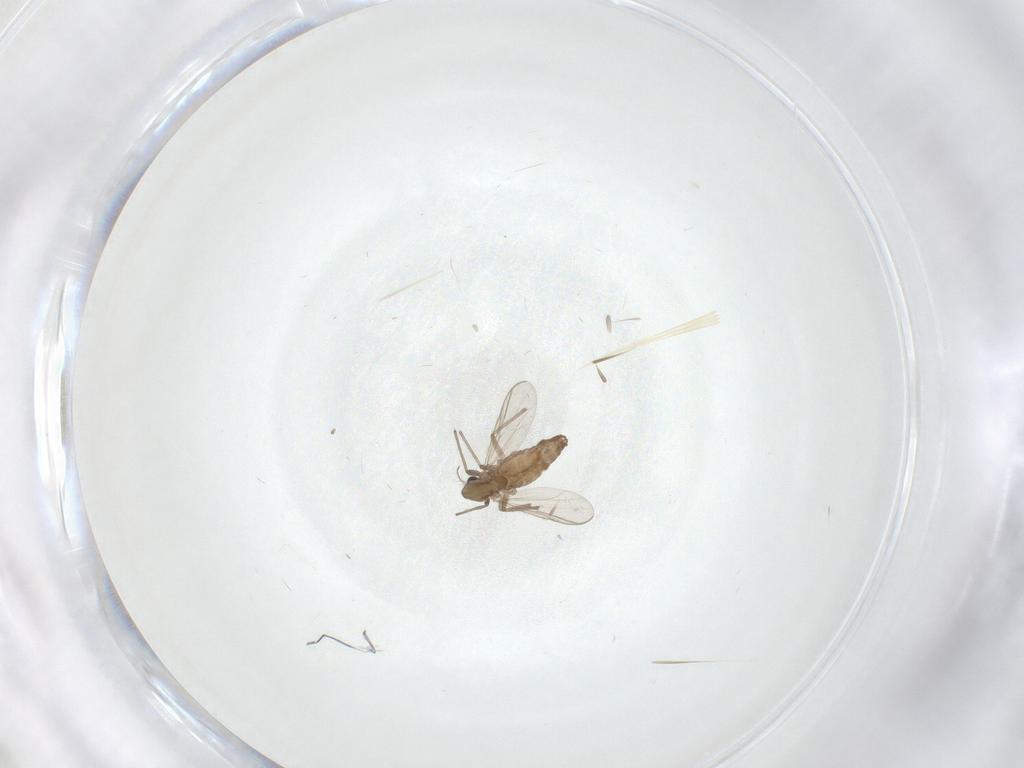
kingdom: Animalia
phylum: Arthropoda
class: Insecta
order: Diptera
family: Chironomidae
